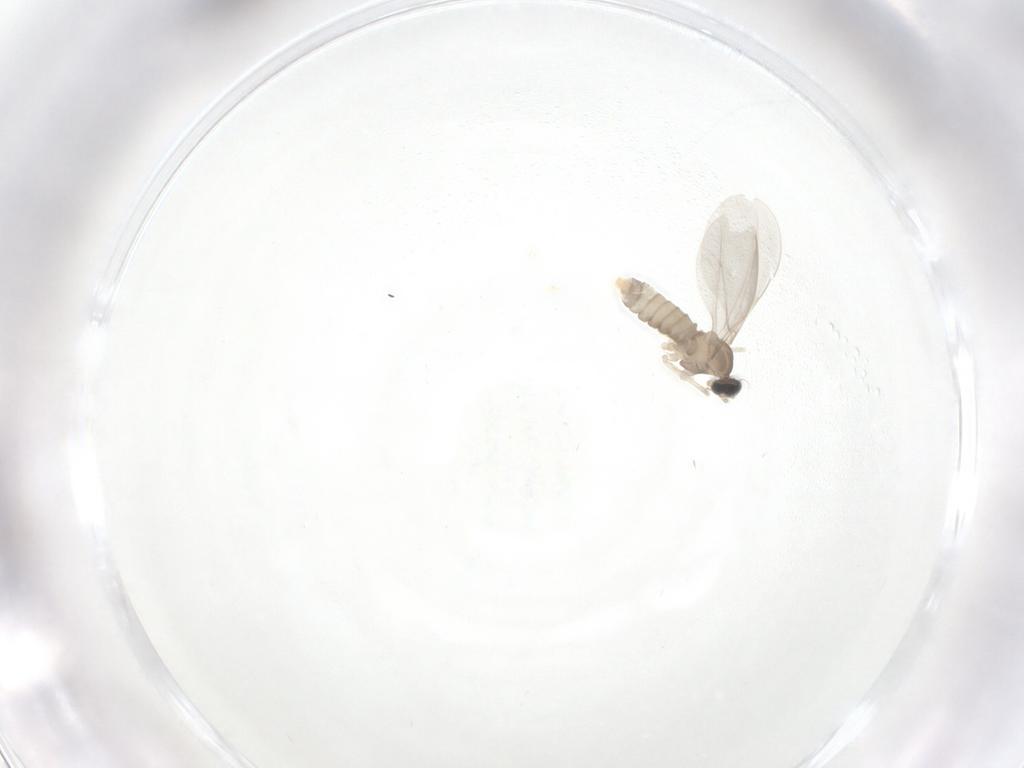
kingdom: Animalia
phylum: Arthropoda
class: Insecta
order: Diptera
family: Cecidomyiidae
